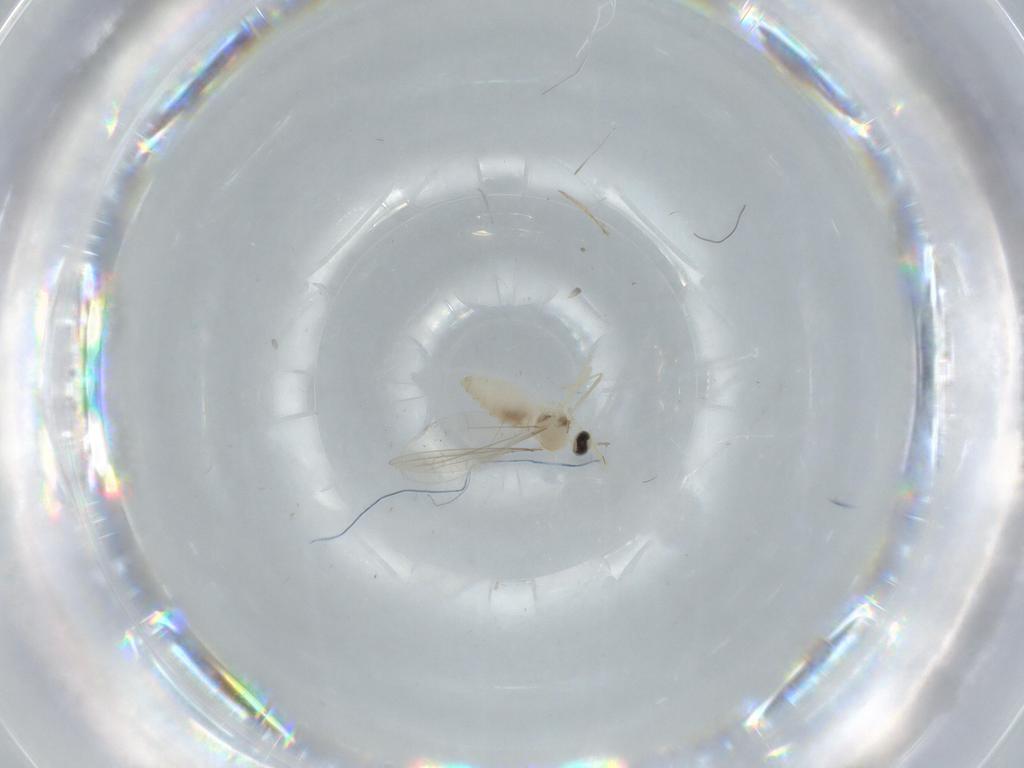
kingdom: Animalia
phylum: Arthropoda
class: Insecta
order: Diptera
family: Cecidomyiidae
